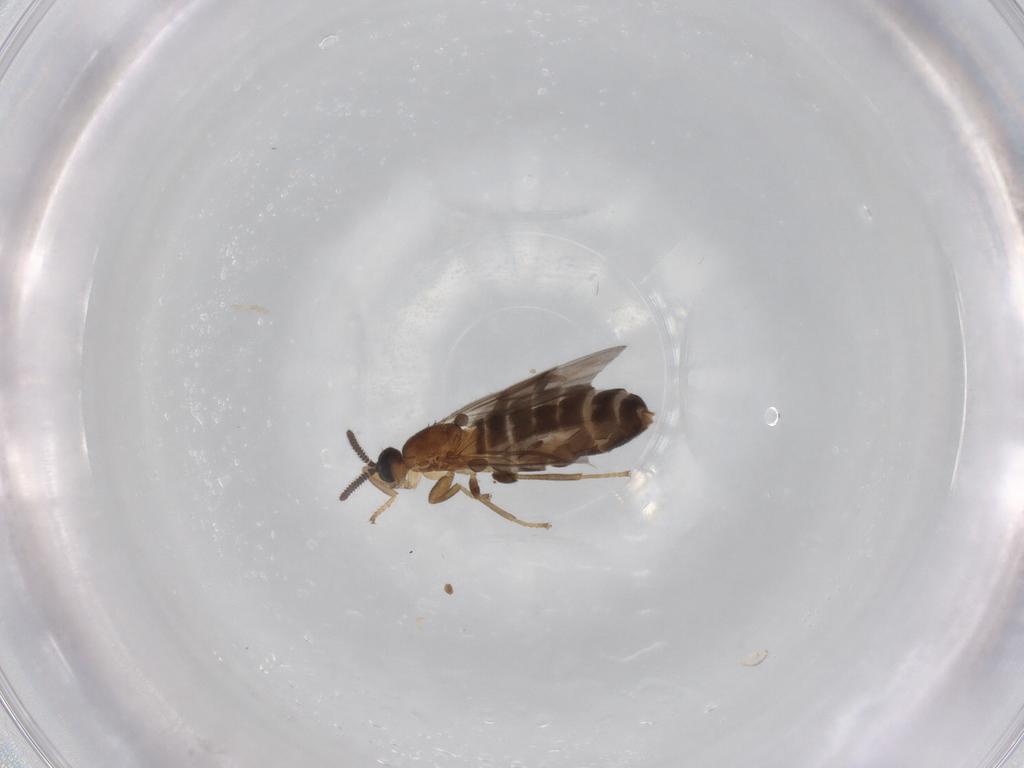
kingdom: Animalia
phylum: Arthropoda
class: Insecta
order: Diptera
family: Scatopsidae
